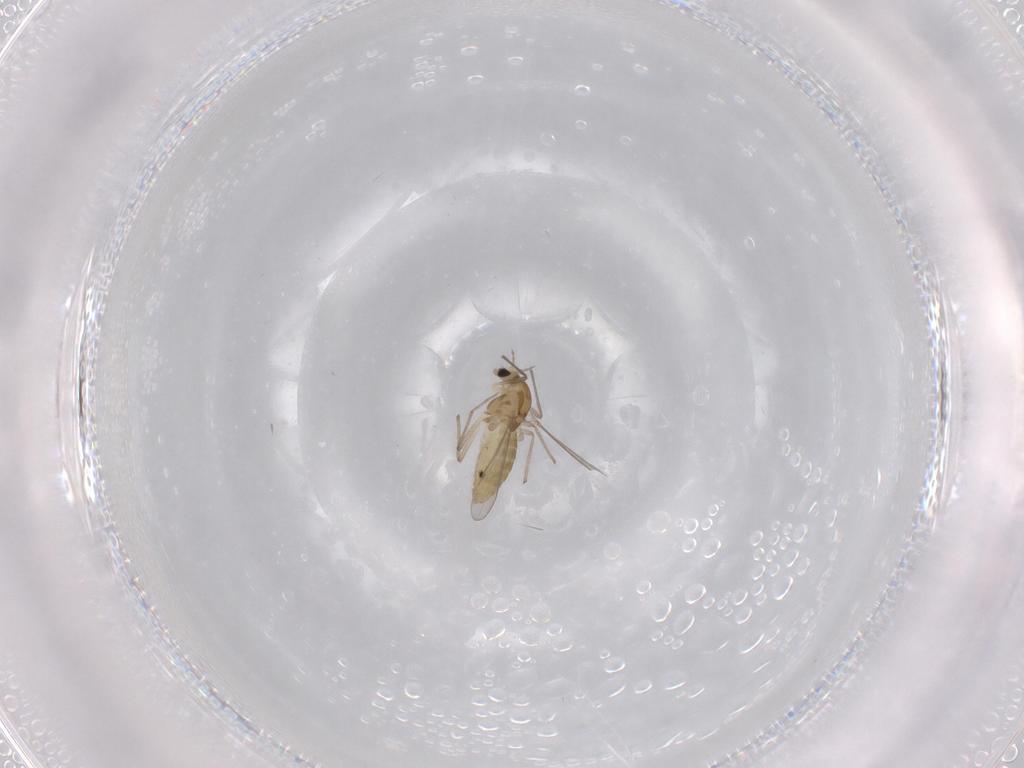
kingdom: Animalia
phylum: Arthropoda
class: Insecta
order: Diptera
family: Chironomidae
